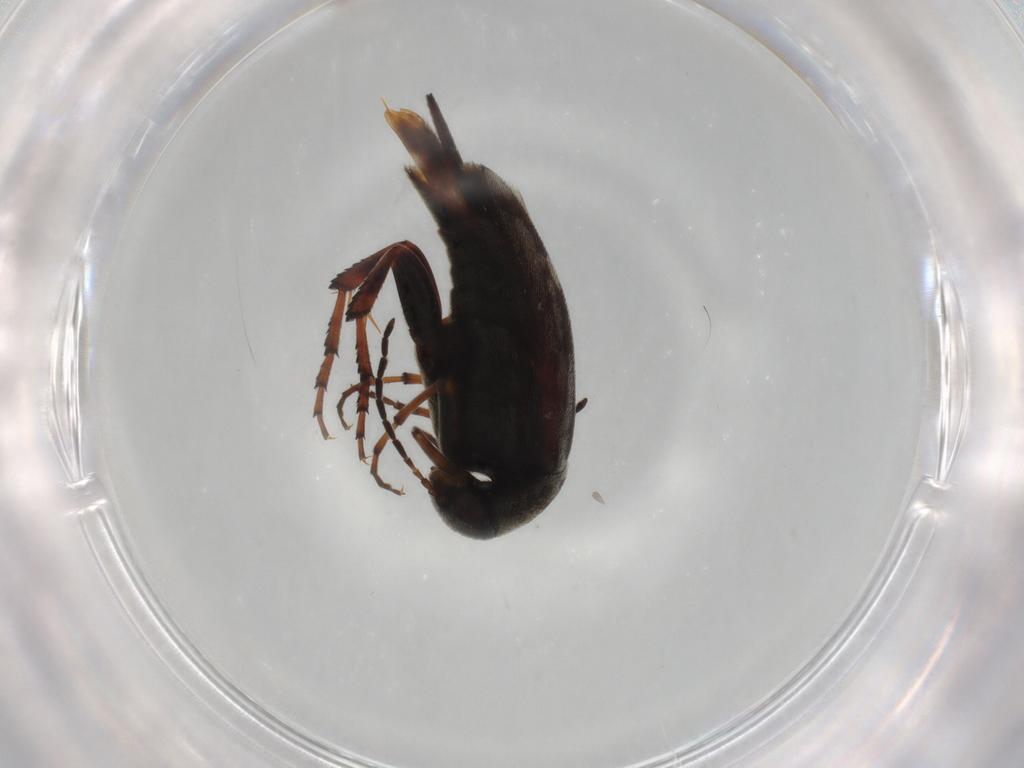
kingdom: Animalia
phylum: Arthropoda
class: Insecta
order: Coleoptera
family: Mordellidae
